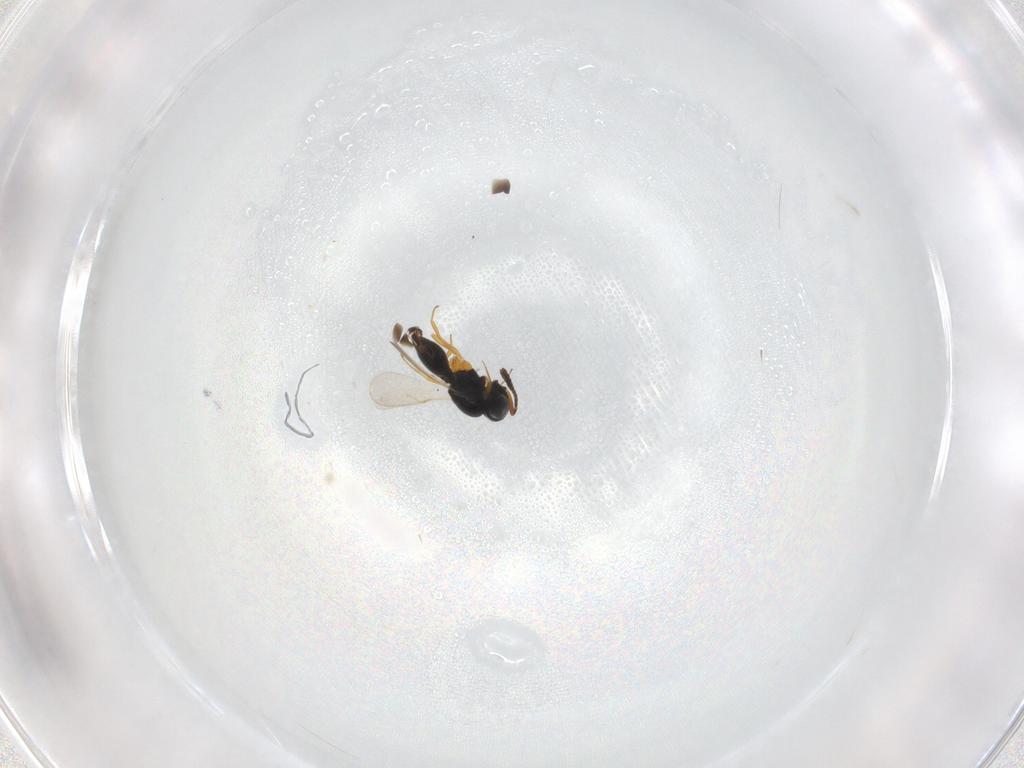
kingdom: Animalia
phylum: Arthropoda
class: Insecta
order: Hymenoptera
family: Scelionidae
